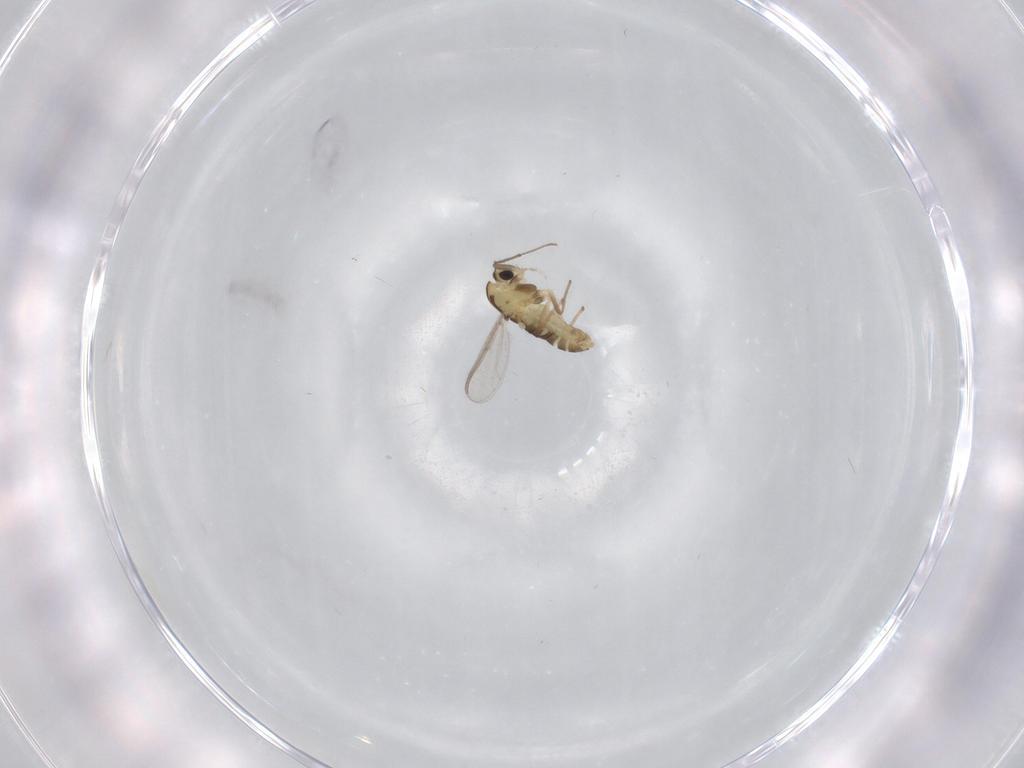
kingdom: Animalia
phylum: Arthropoda
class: Insecta
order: Diptera
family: Chironomidae
